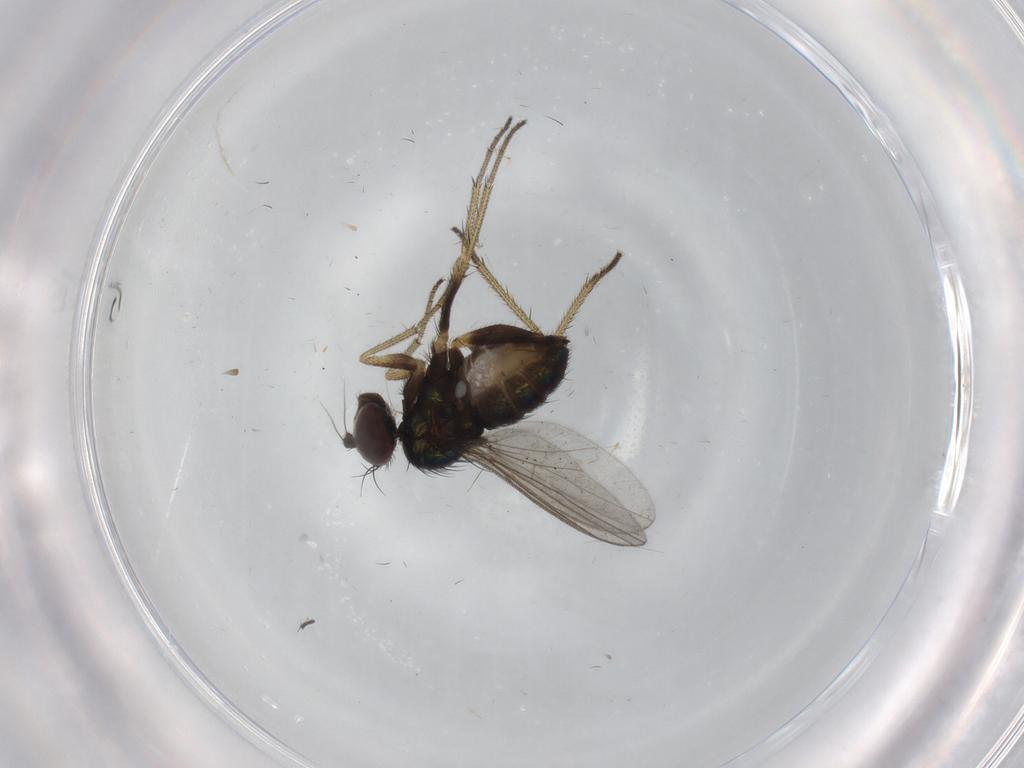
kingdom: Animalia
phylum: Arthropoda
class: Insecta
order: Diptera
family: Dolichopodidae
